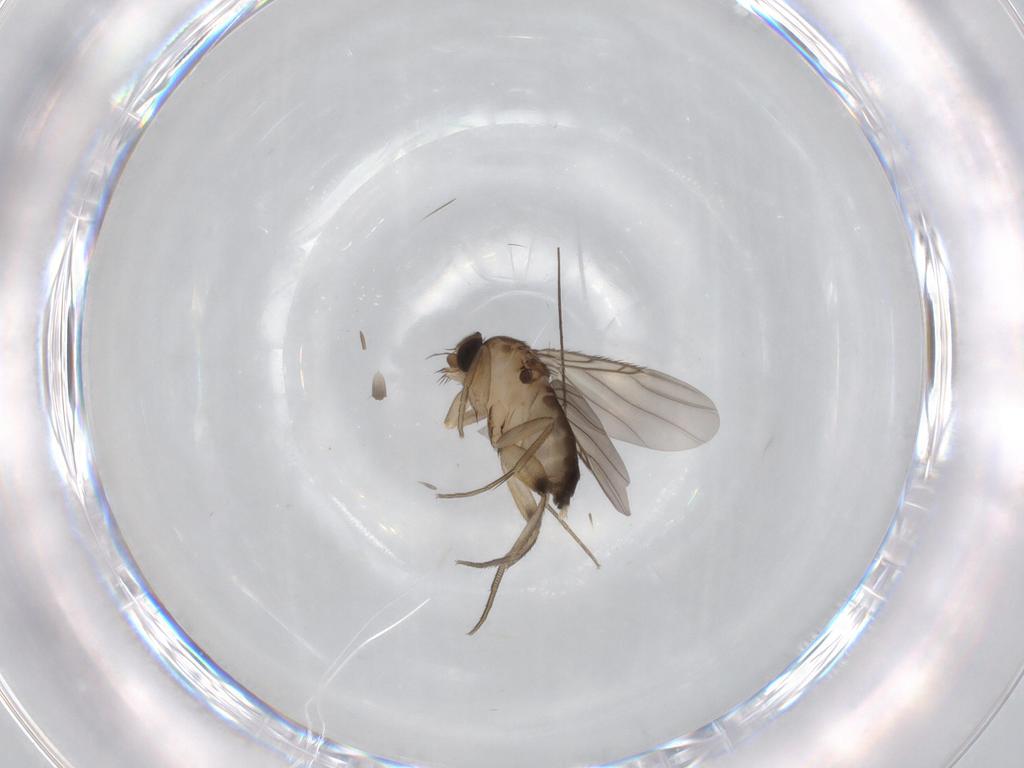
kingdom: Animalia
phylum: Arthropoda
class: Insecta
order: Diptera
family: Phoridae
